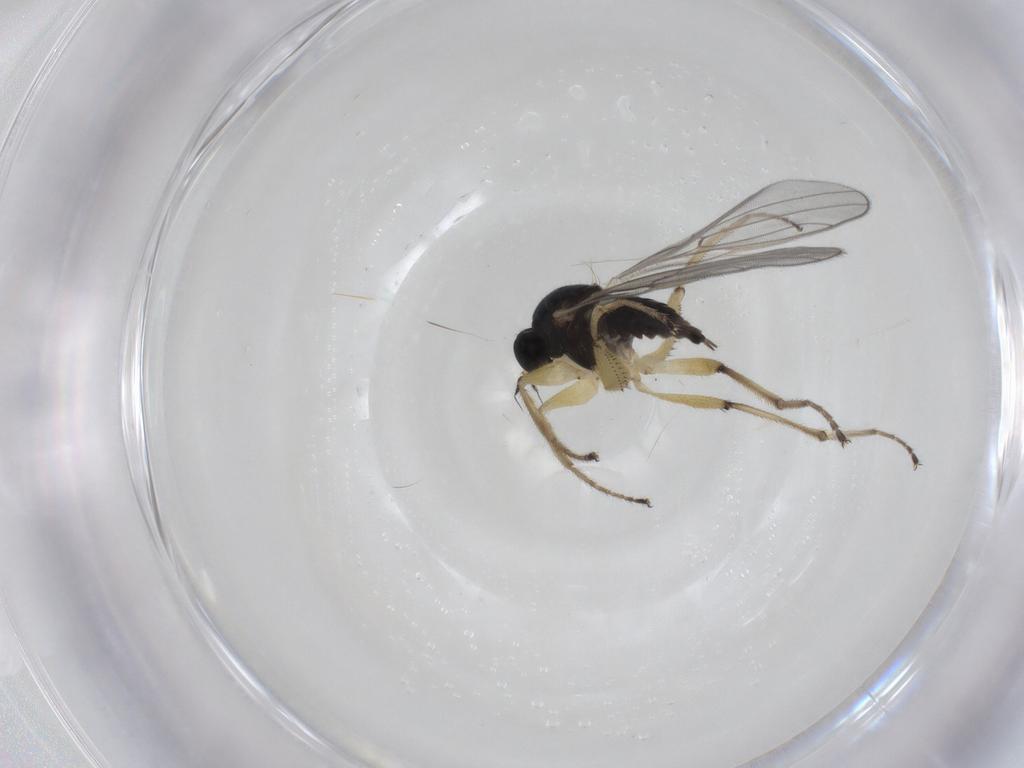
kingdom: Animalia
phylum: Arthropoda
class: Insecta
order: Diptera
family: Hybotidae
